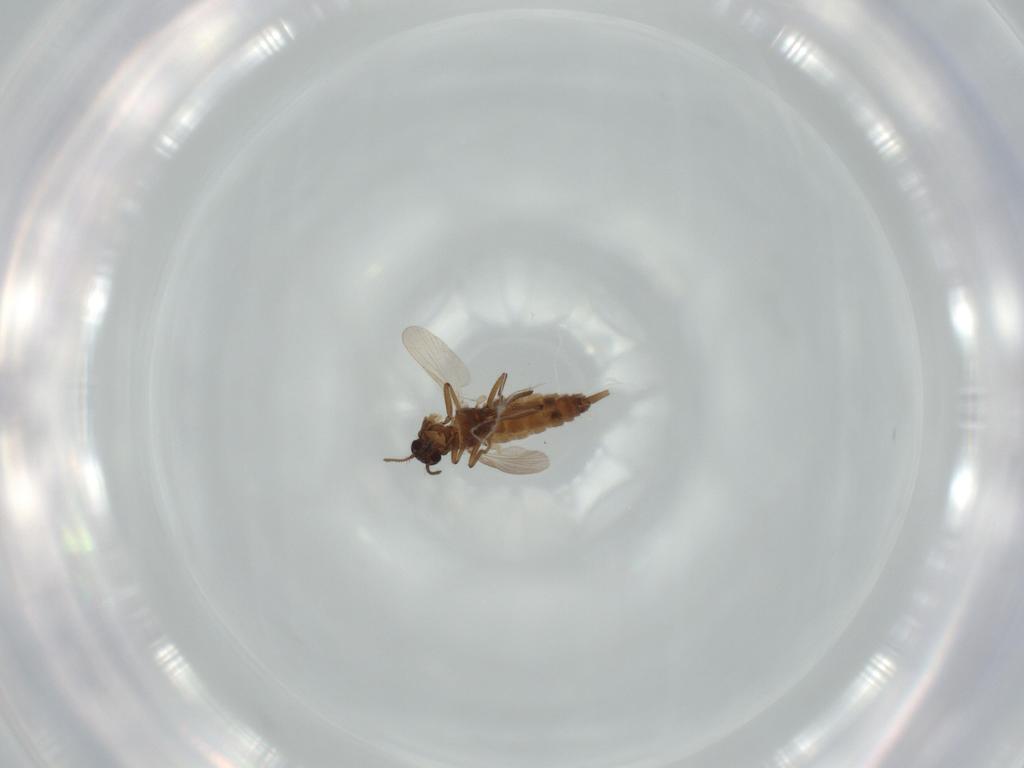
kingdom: Animalia
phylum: Arthropoda
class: Insecta
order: Diptera
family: Ceratopogonidae
